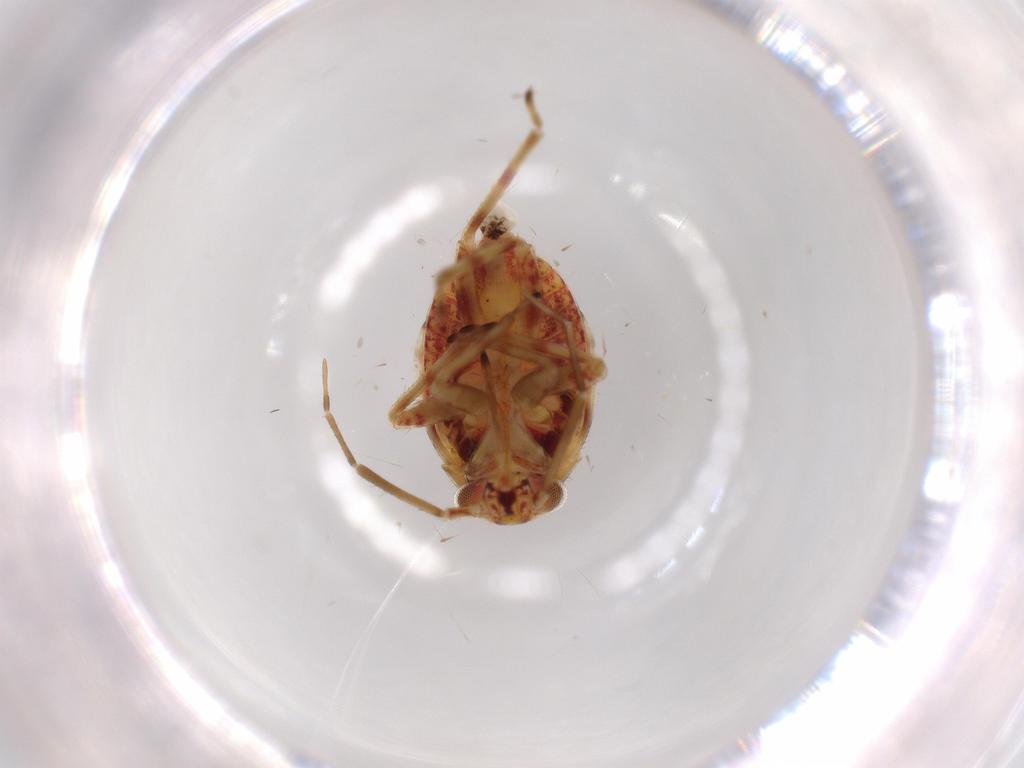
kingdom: Animalia
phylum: Arthropoda
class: Insecta
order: Hemiptera
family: Miridae
